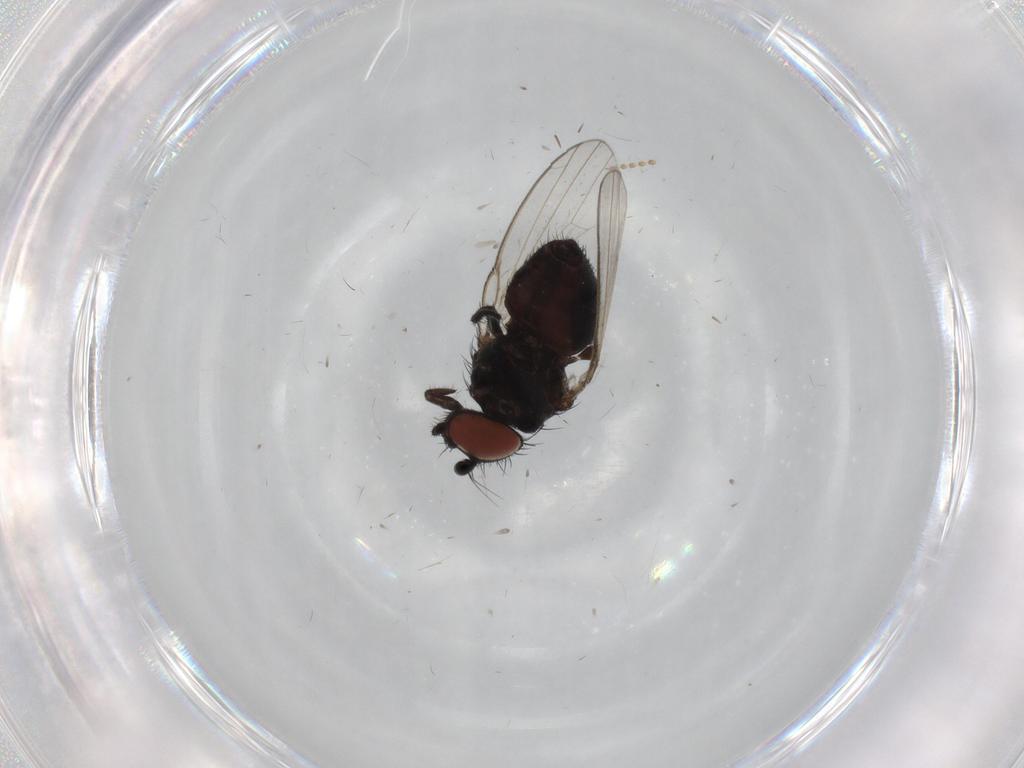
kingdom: Animalia
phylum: Arthropoda
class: Insecta
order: Diptera
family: Milichiidae
